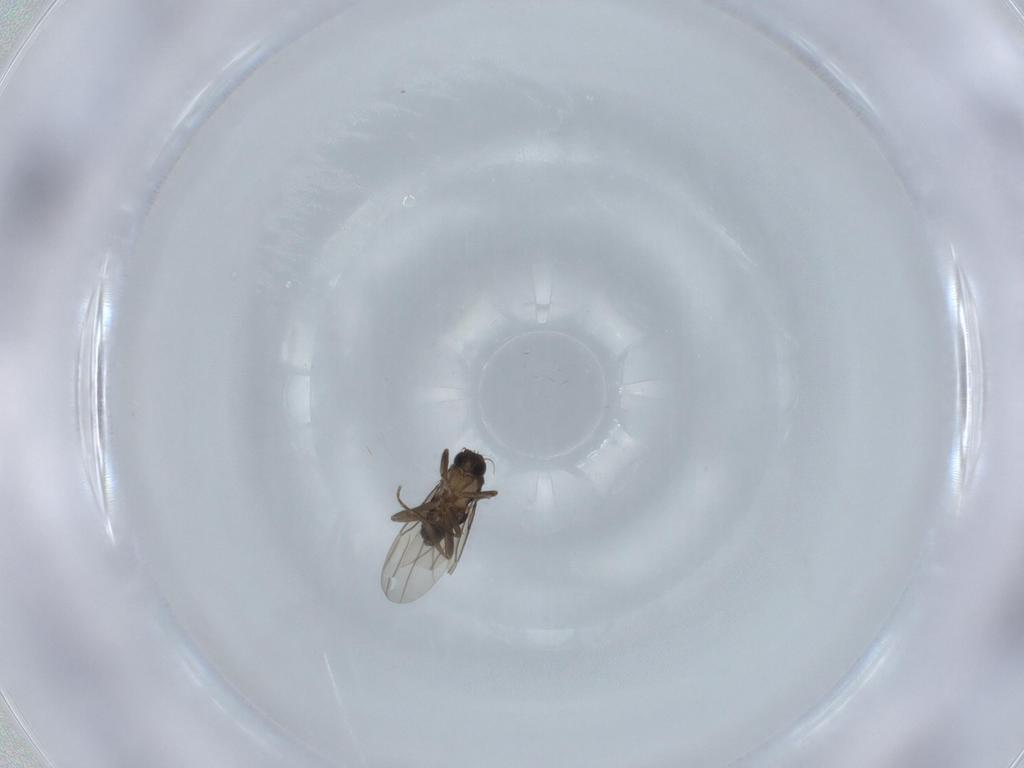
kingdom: Animalia
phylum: Arthropoda
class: Insecta
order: Diptera
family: Phoridae
